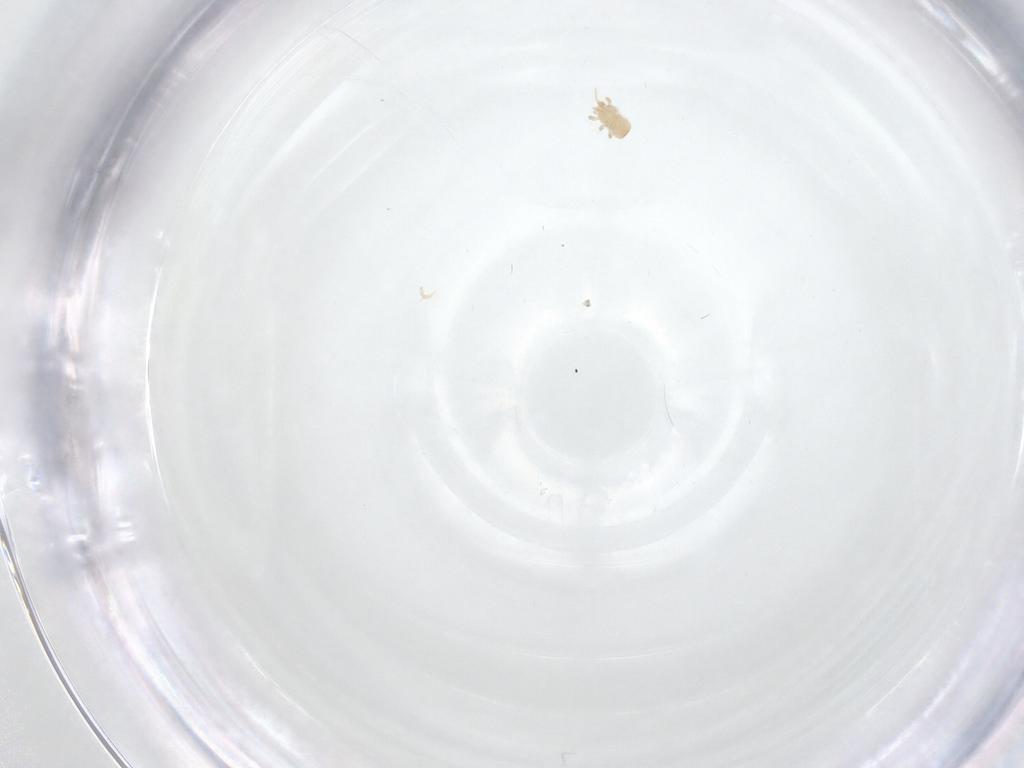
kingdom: Animalia
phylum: Arthropoda
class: Arachnida
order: Mesostigmata
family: Ascidae
